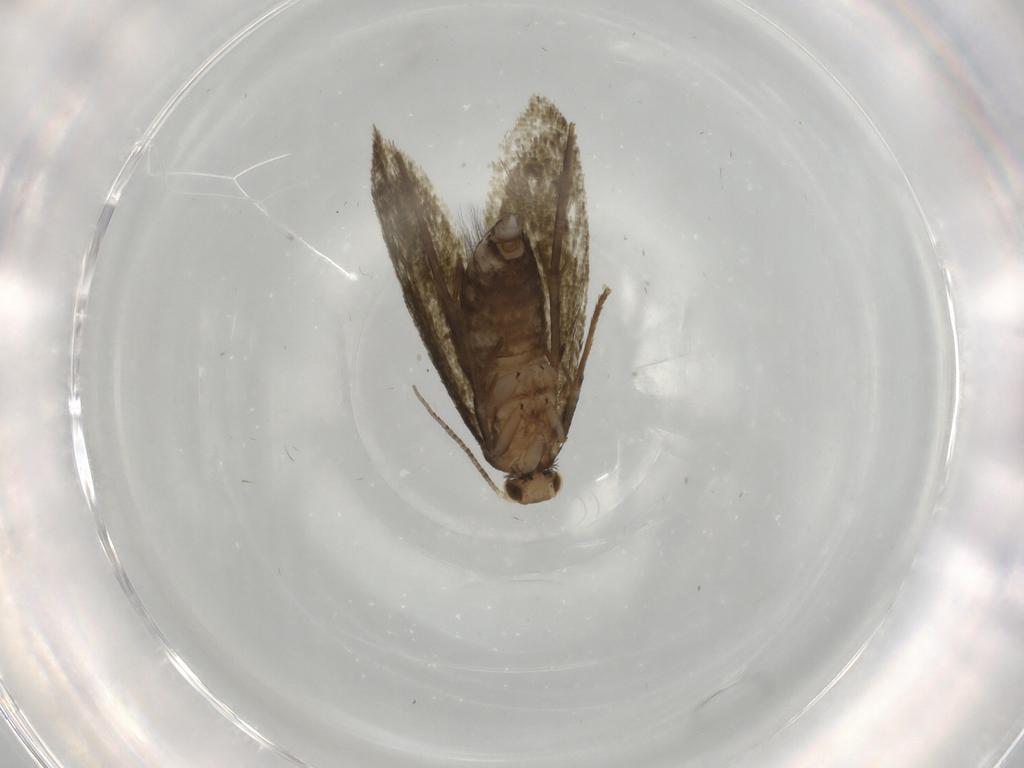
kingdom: Animalia
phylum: Arthropoda
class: Insecta
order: Lepidoptera
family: Tineidae
